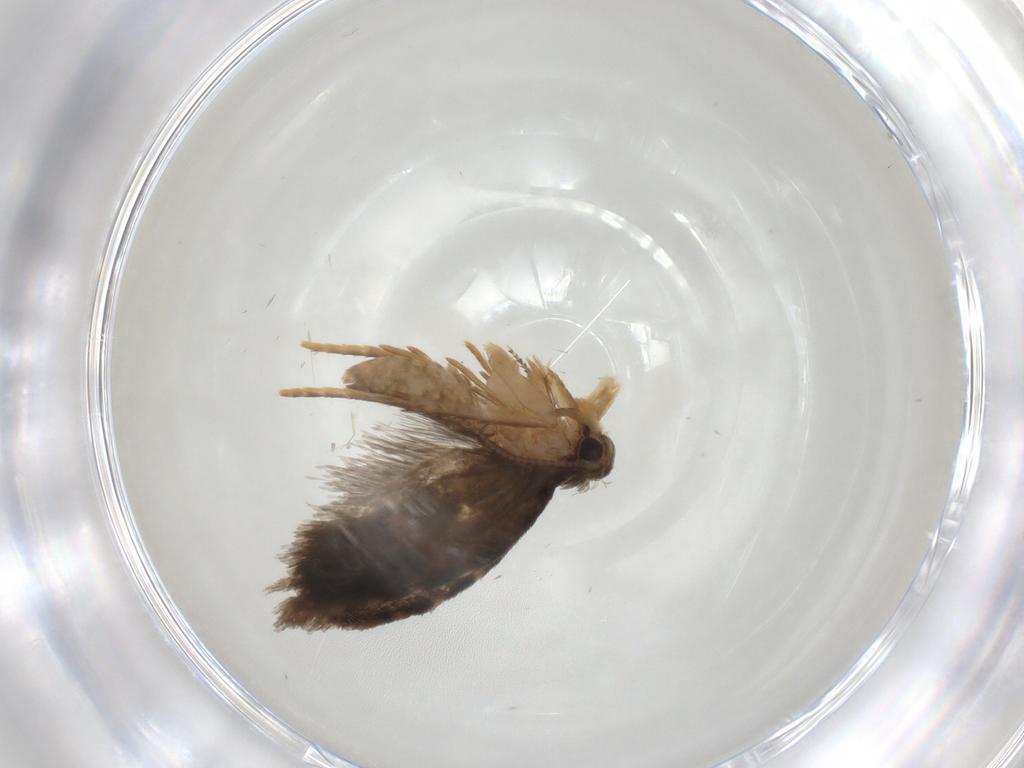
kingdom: Animalia
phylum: Arthropoda
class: Insecta
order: Lepidoptera
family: Psychidae
